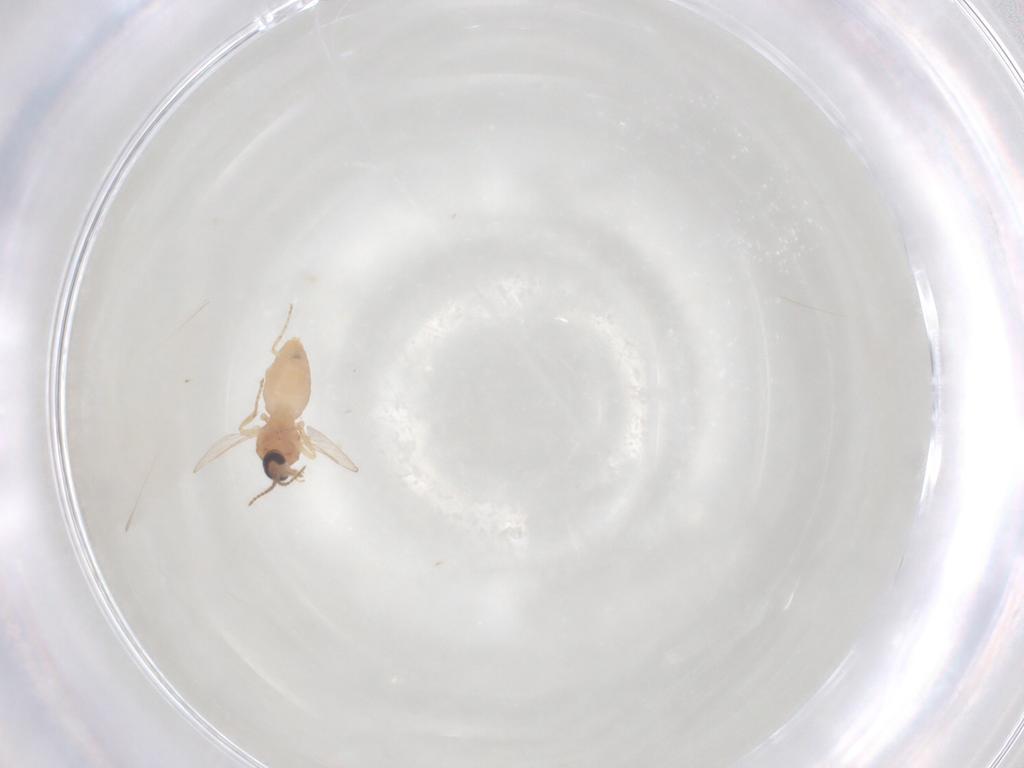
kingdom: Animalia
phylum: Arthropoda
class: Insecta
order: Diptera
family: Ceratopogonidae
